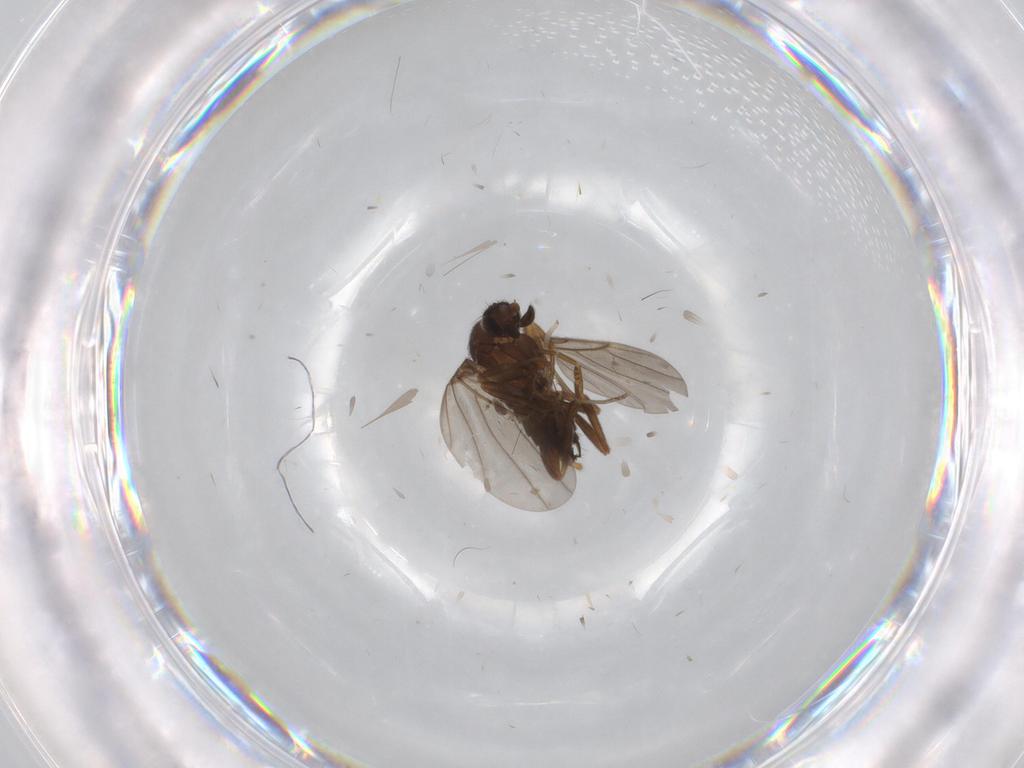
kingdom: Animalia
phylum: Arthropoda
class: Insecta
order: Diptera
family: Phoridae
